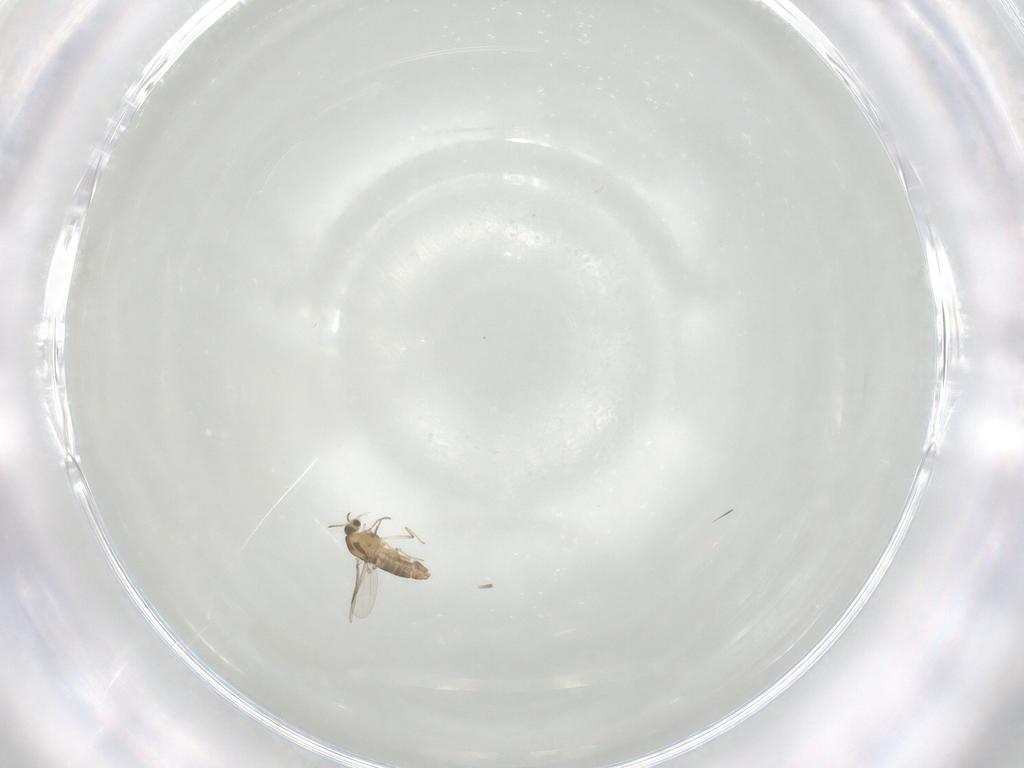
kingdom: Animalia
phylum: Arthropoda
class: Insecta
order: Diptera
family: Chironomidae
